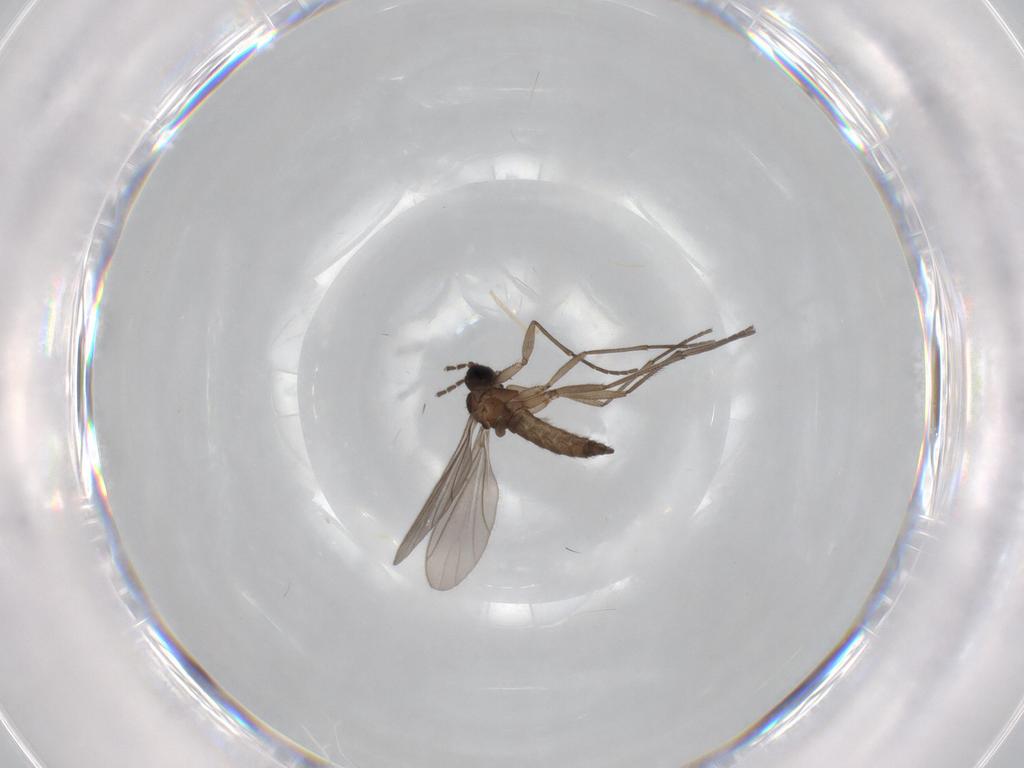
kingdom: Animalia
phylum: Arthropoda
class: Insecta
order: Diptera
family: Sciaridae
